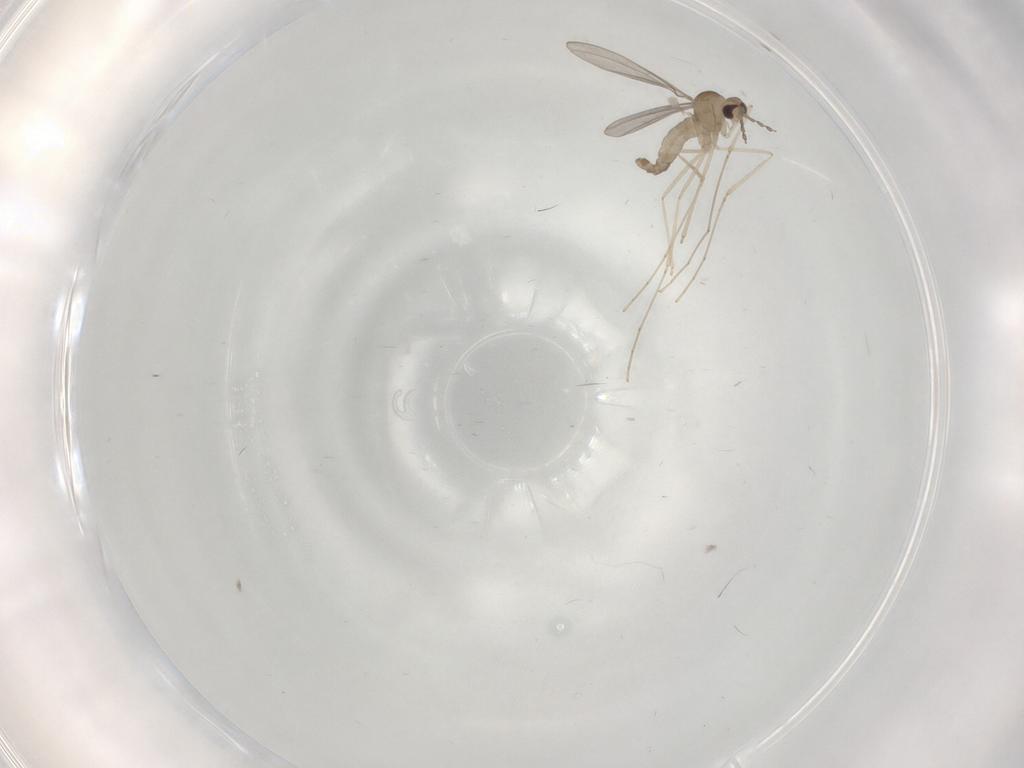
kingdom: Animalia
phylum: Arthropoda
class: Insecta
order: Diptera
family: Cecidomyiidae
